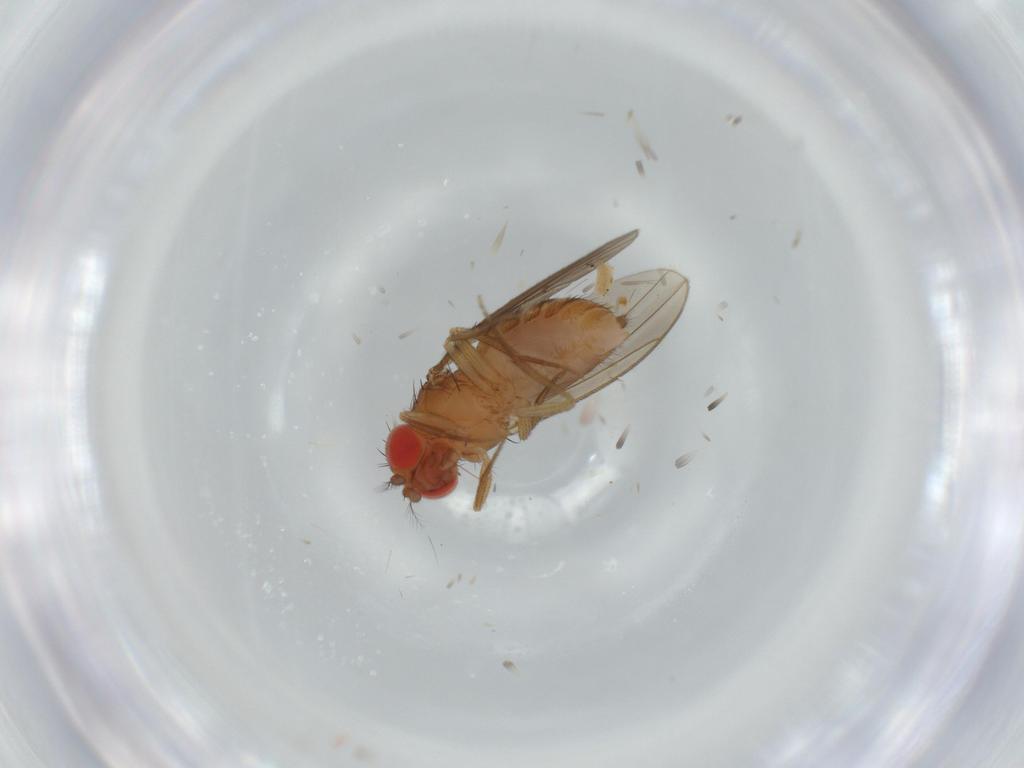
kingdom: Animalia
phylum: Arthropoda
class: Insecta
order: Diptera
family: Drosophilidae
